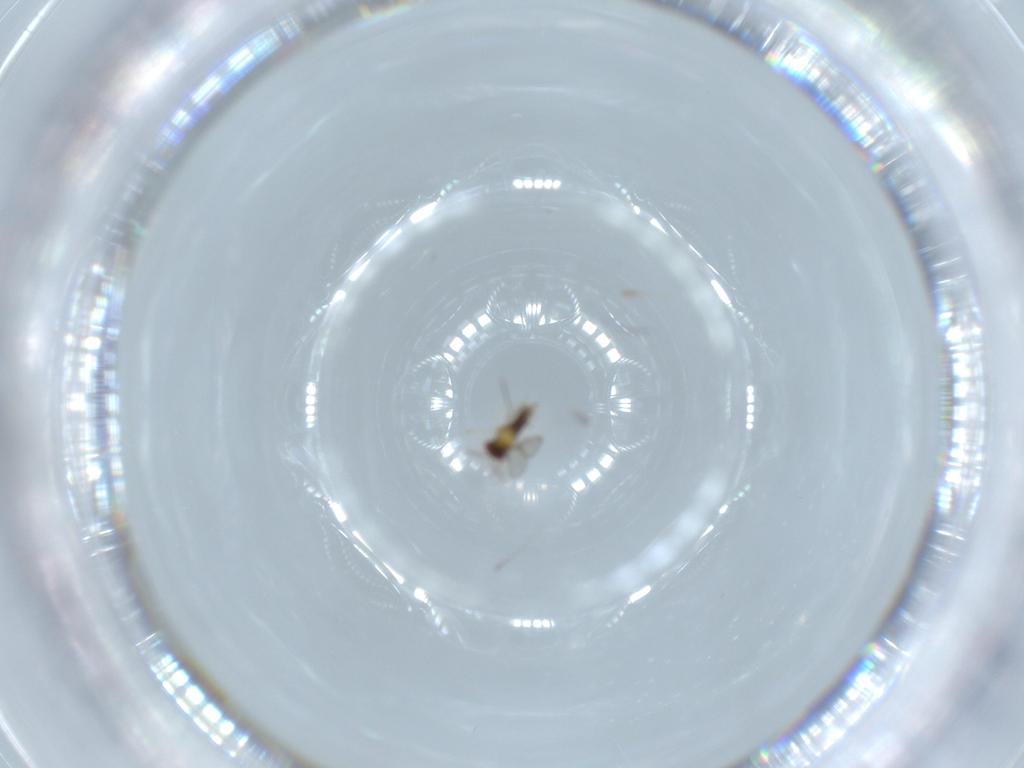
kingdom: Animalia
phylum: Arthropoda
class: Insecta
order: Hymenoptera
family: Aphelinidae
